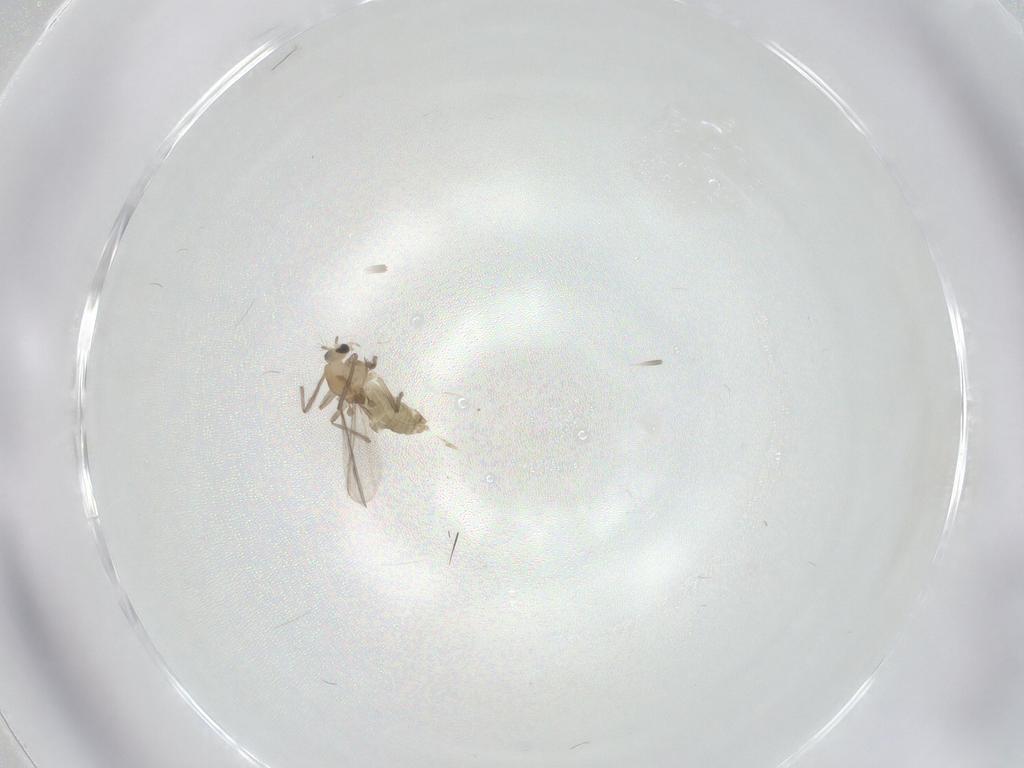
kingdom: Animalia
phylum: Arthropoda
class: Insecta
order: Diptera
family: Chironomidae
